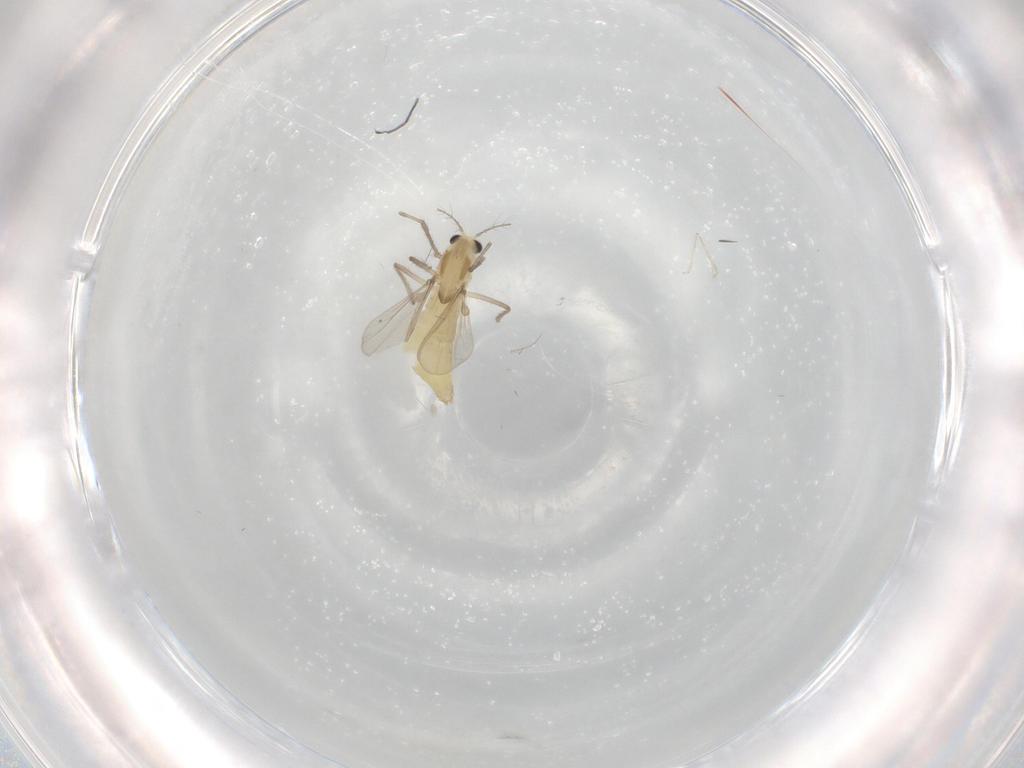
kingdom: Animalia
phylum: Arthropoda
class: Insecta
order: Diptera
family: Chironomidae
